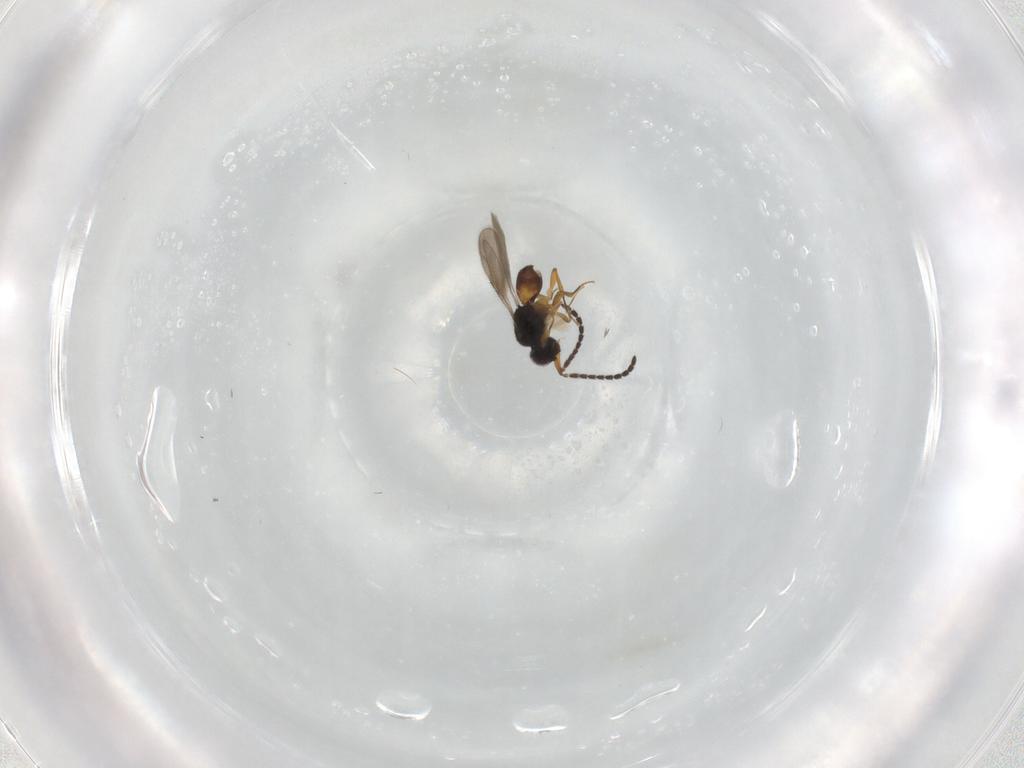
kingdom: Animalia
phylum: Arthropoda
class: Insecta
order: Hymenoptera
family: Ceraphronidae
